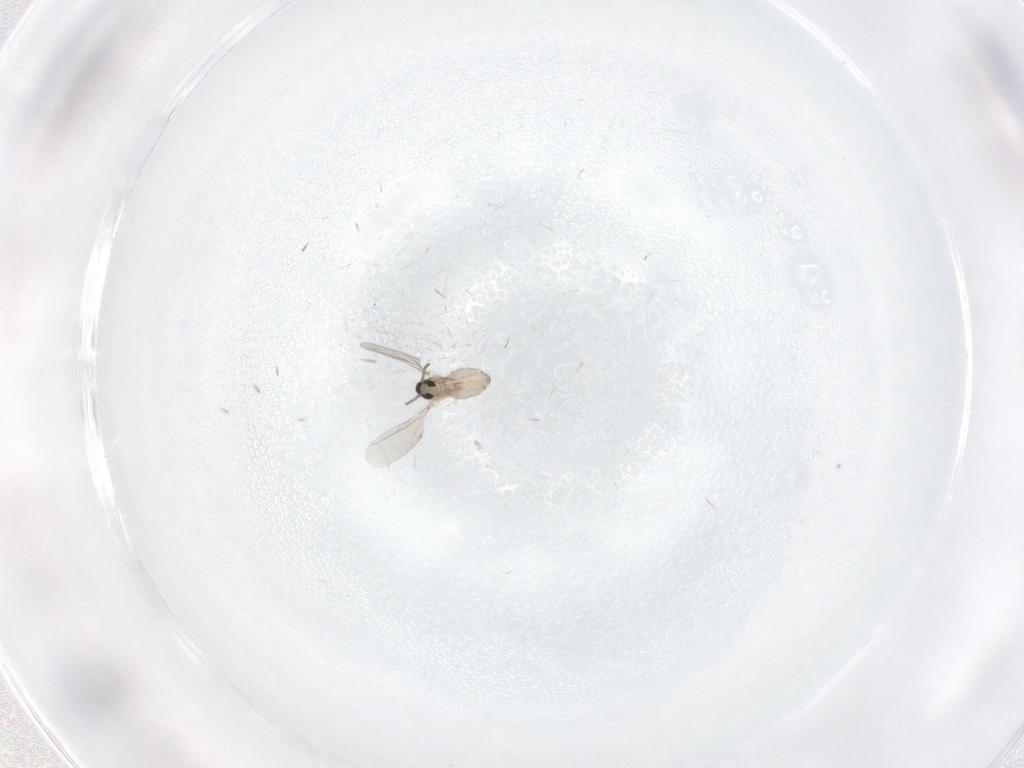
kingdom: Animalia
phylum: Arthropoda
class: Insecta
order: Diptera
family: Cecidomyiidae
